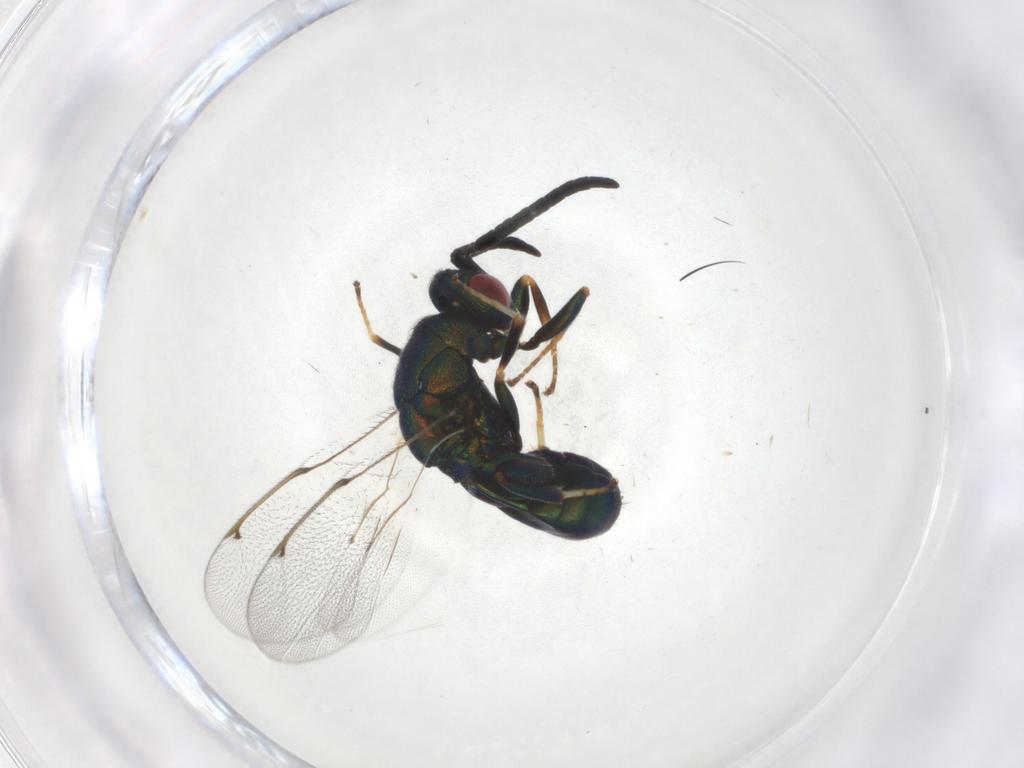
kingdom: Animalia
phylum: Arthropoda
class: Insecta
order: Hymenoptera
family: Torymidae
